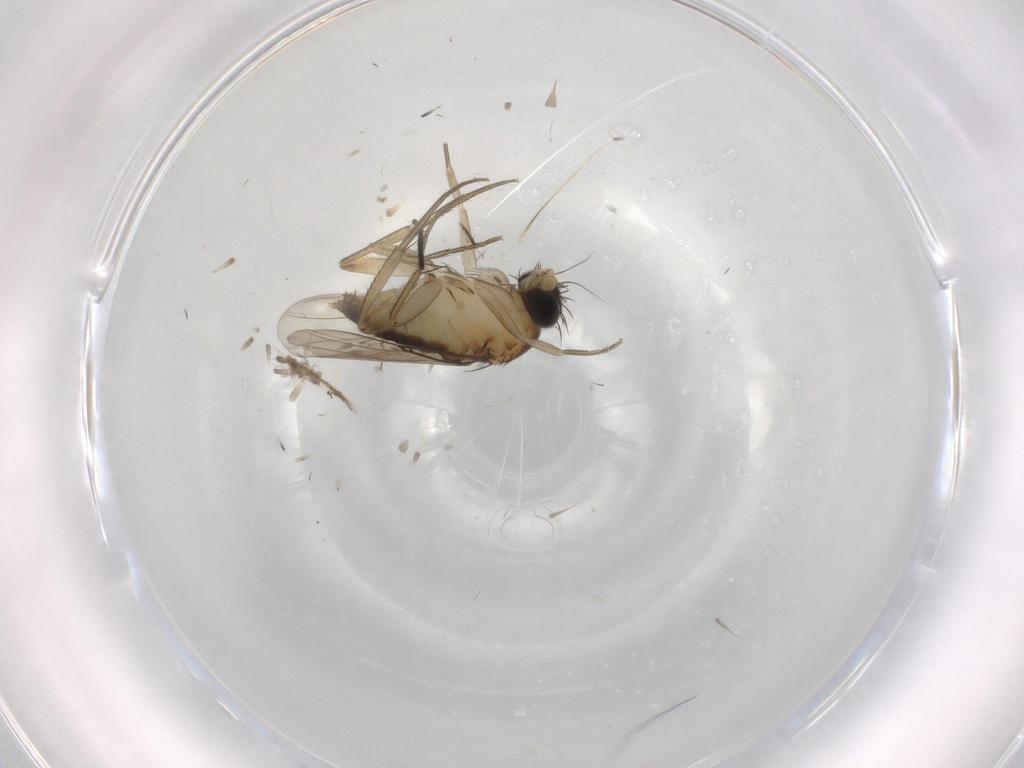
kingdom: Animalia
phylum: Arthropoda
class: Insecta
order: Diptera
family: Phoridae
